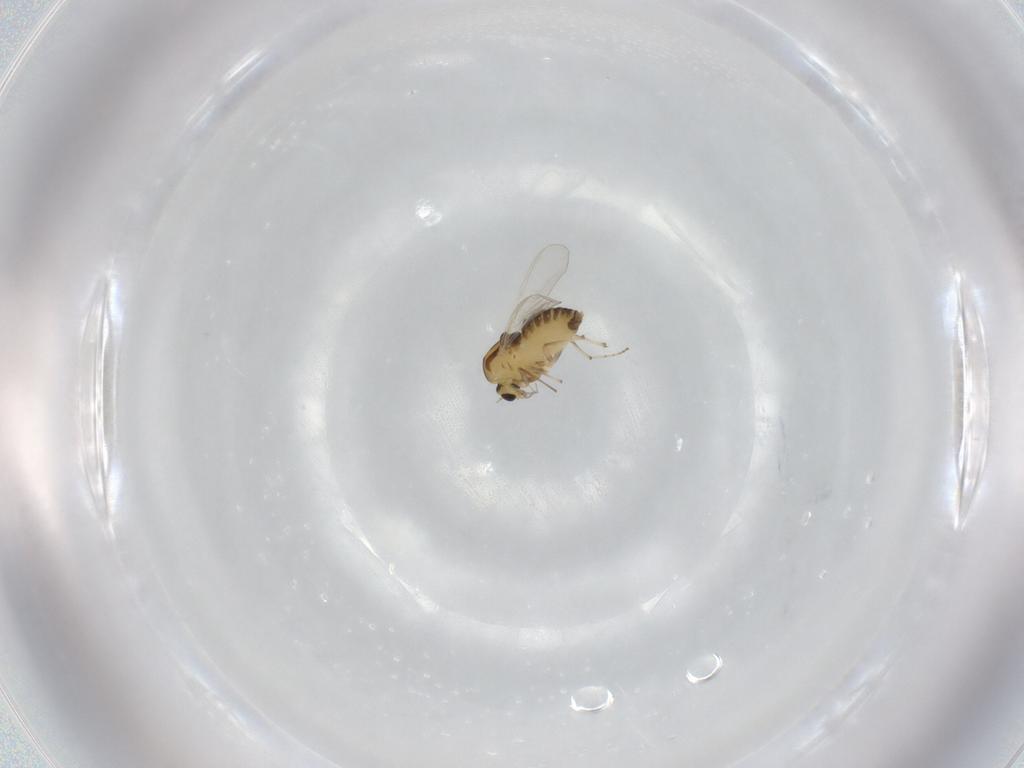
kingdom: Animalia
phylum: Arthropoda
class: Insecta
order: Diptera
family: Chironomidae
